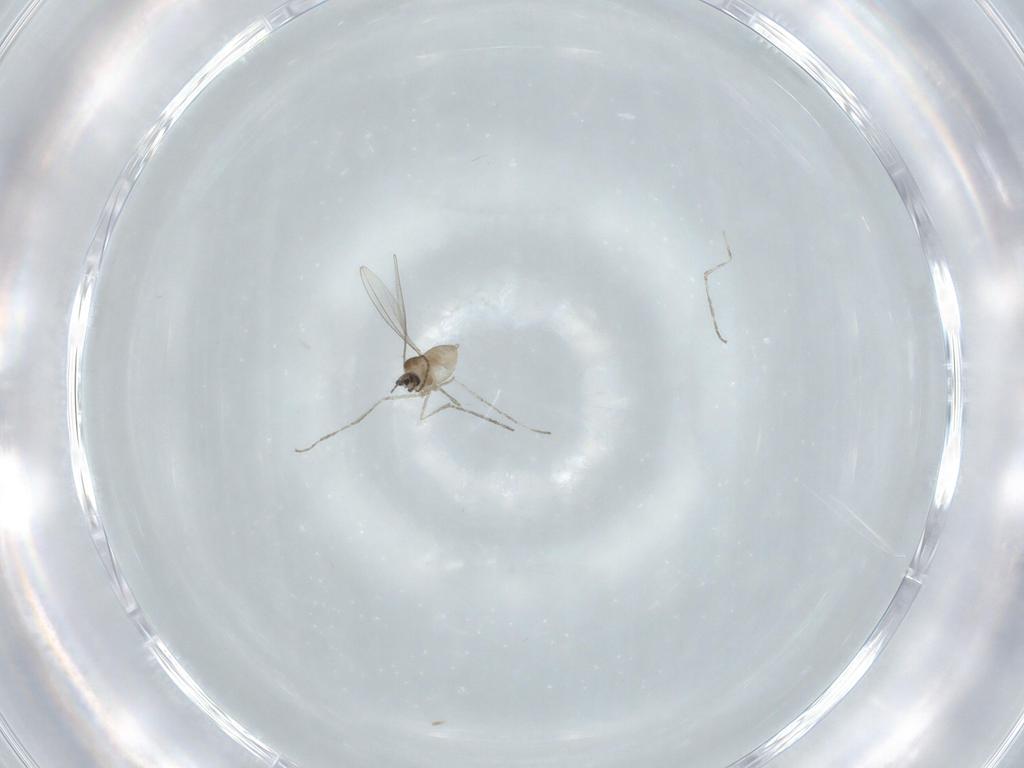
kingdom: Animalia
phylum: Arthropoda
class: Insecta
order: Diptera
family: Cecidomyiidae
